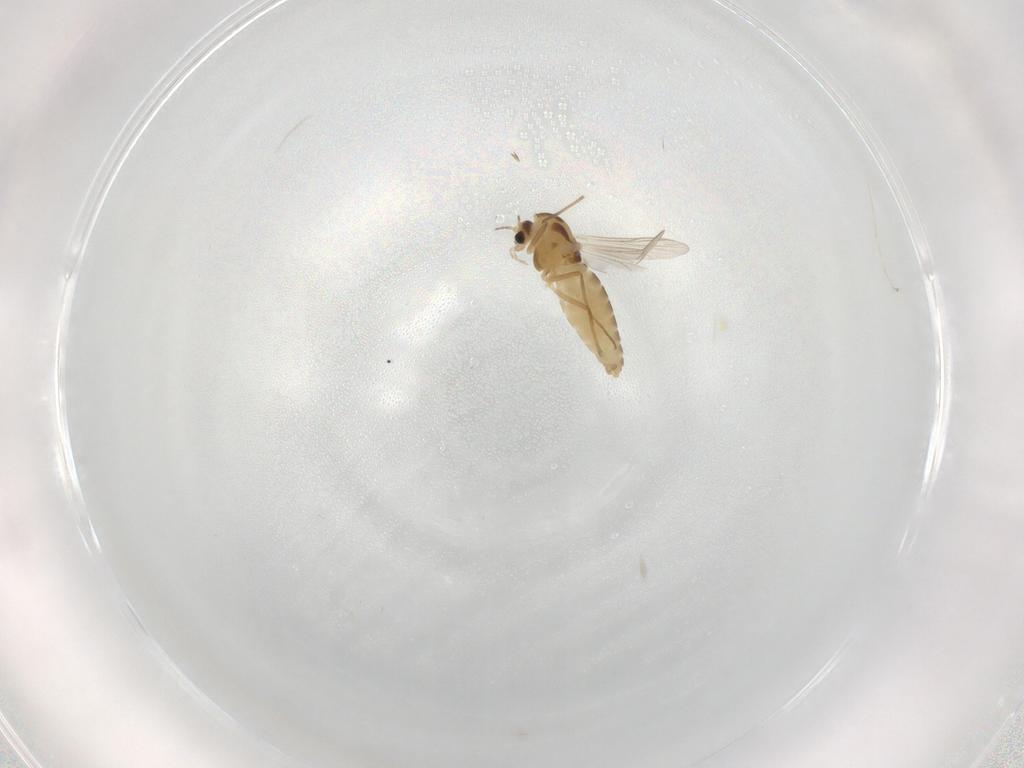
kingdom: Animalia
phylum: Arthropoda
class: Insecta
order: Diptera
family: Chironomidae
